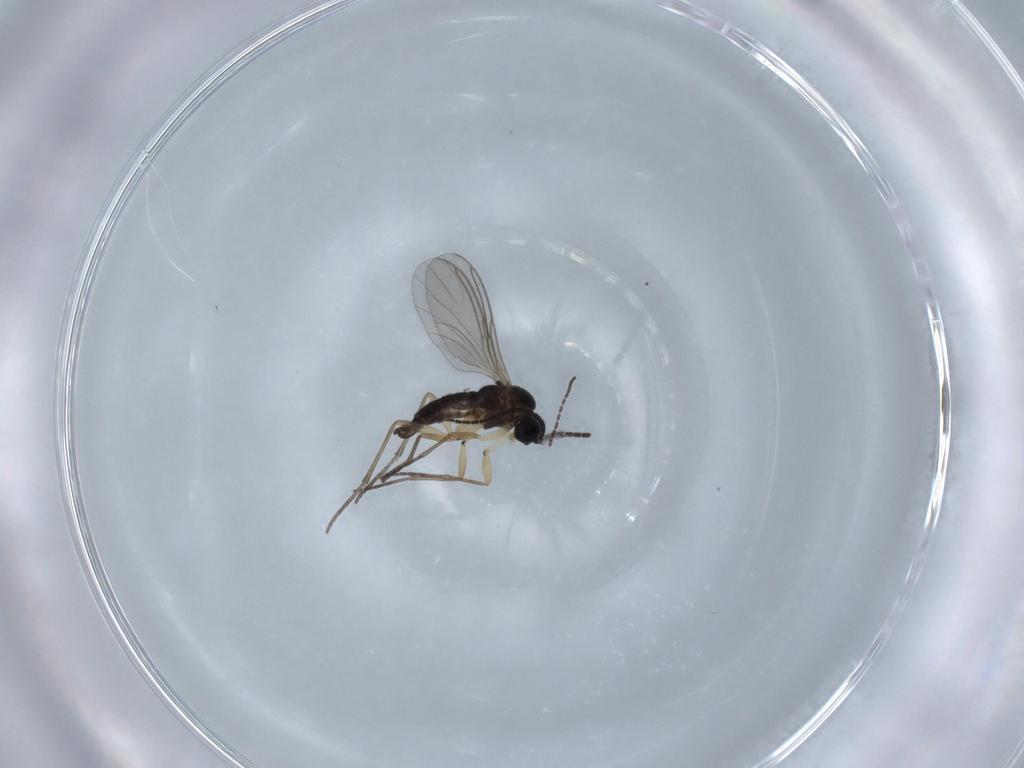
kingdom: Animalia
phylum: Arthropoda
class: Insecta
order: Diptera
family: Sciaridae
